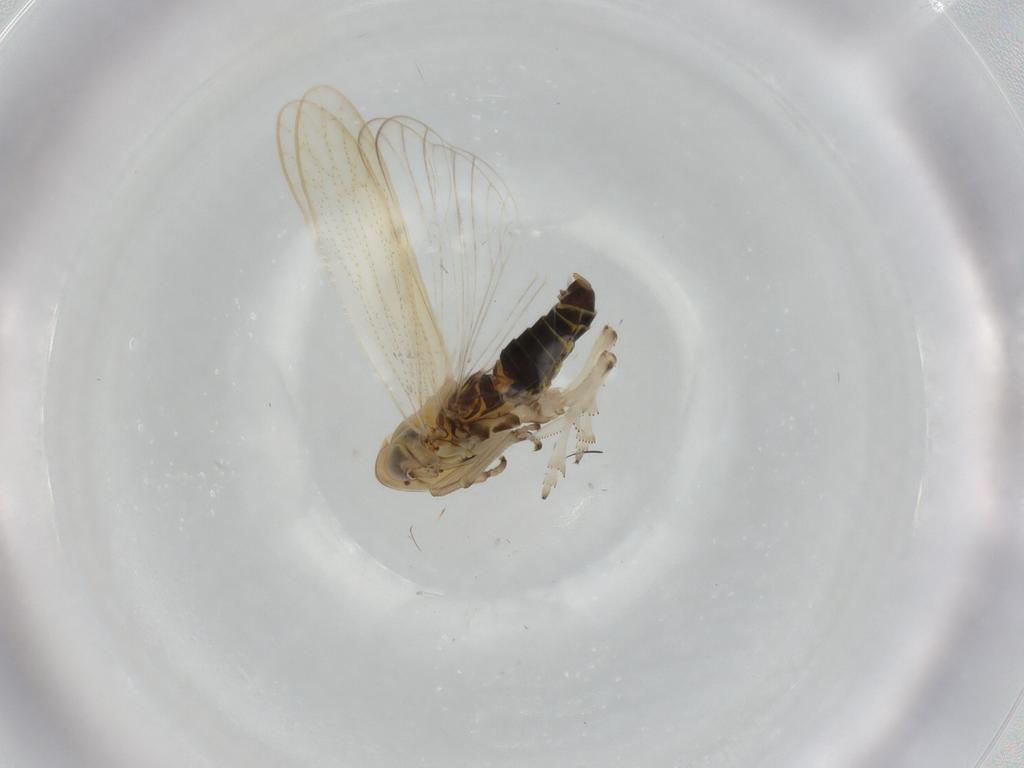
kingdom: Animalia
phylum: Arthropoda
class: Insecta
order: Hemiptera
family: Delphacidae
